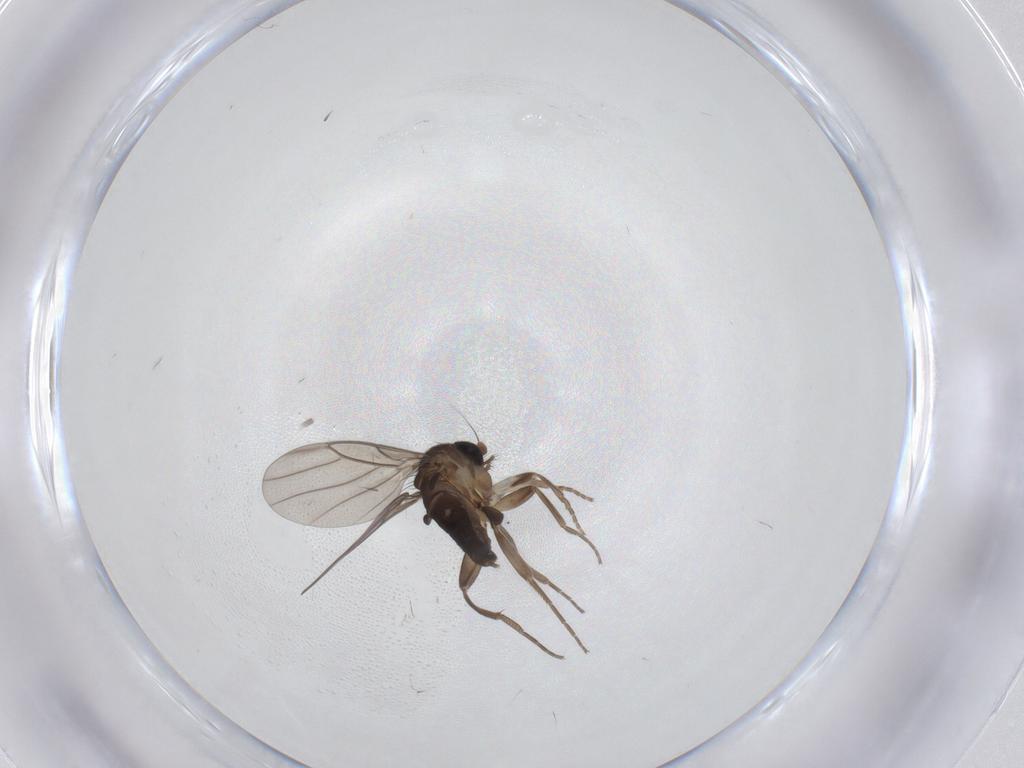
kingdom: Animalia
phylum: Arthropoda
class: Insecta
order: Diptera
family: Phoridae
